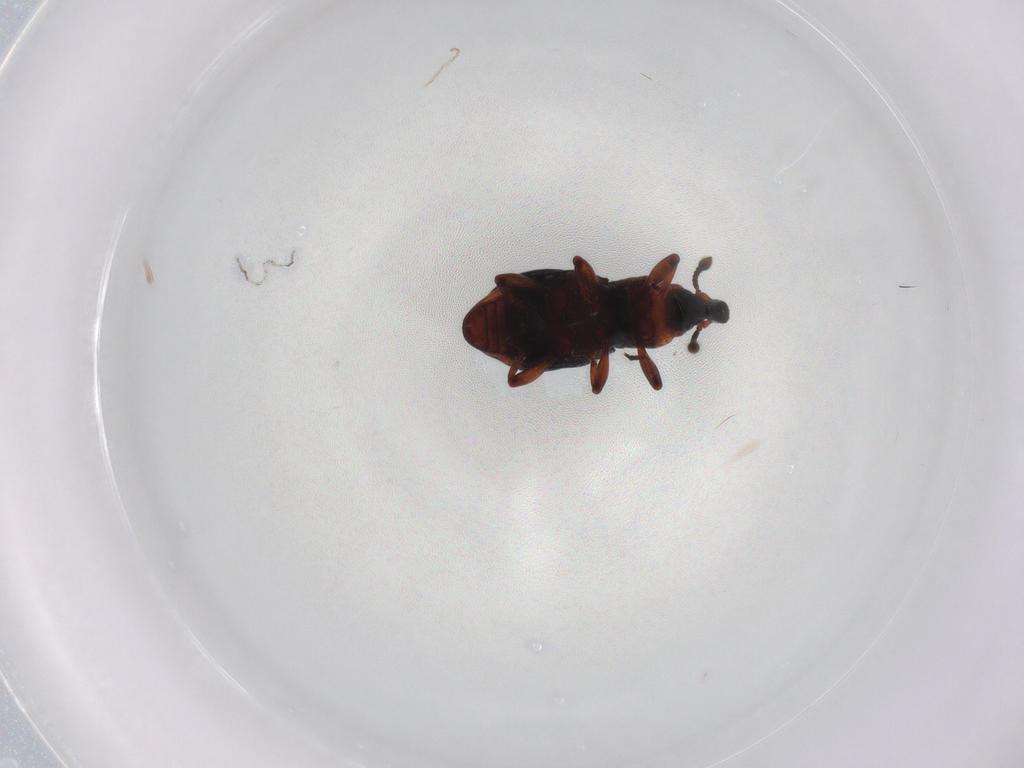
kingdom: Animalia
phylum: Arthropoda
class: Insecta
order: Coleoptera
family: Curculionidae
